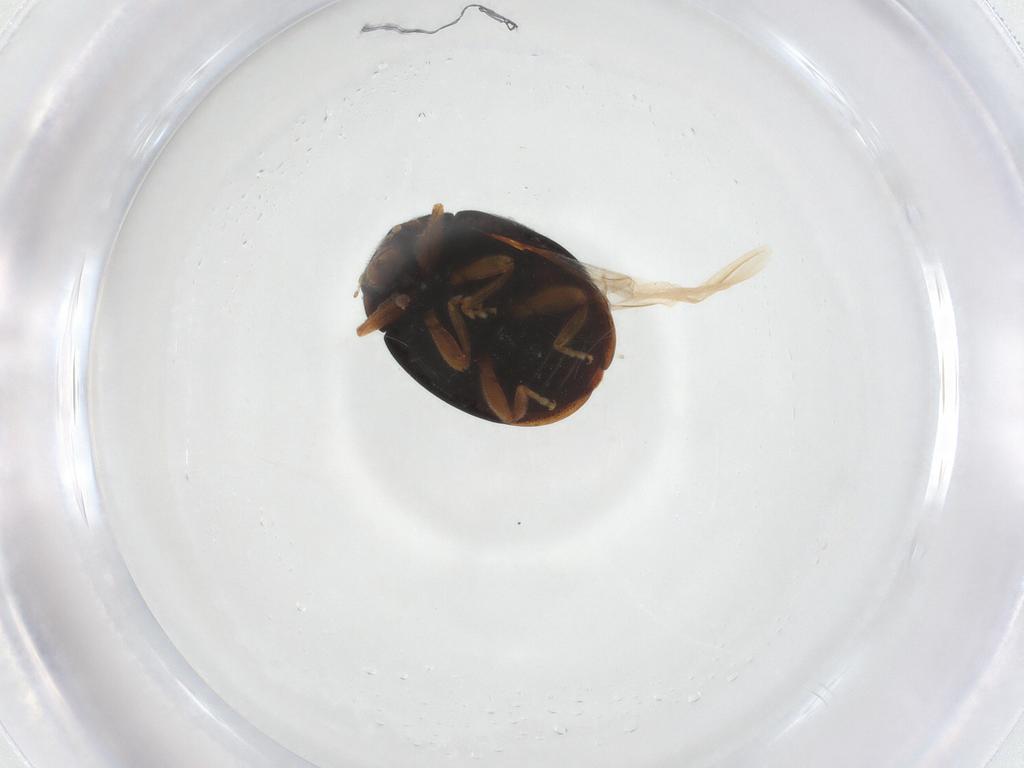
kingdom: Animalia
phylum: Arthropoda
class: Insecta
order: Coleoptera
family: Coccinellidae
